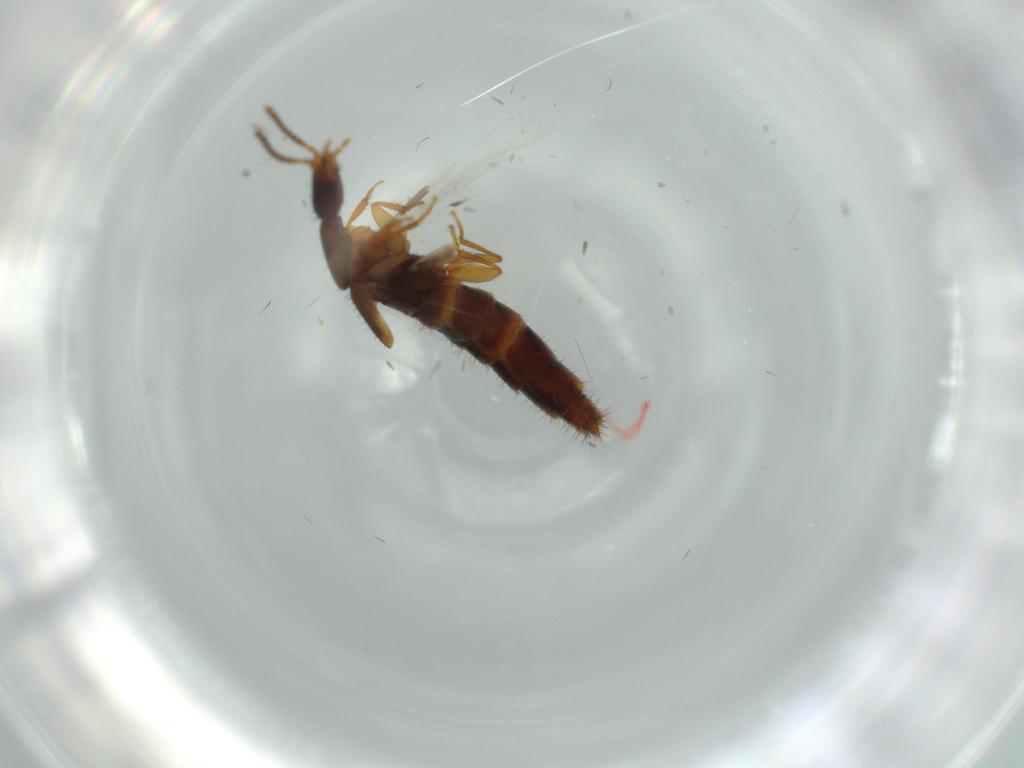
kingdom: Animalia
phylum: Arthropoda
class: Insecta
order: Coleoptera
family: Staphylinidae
